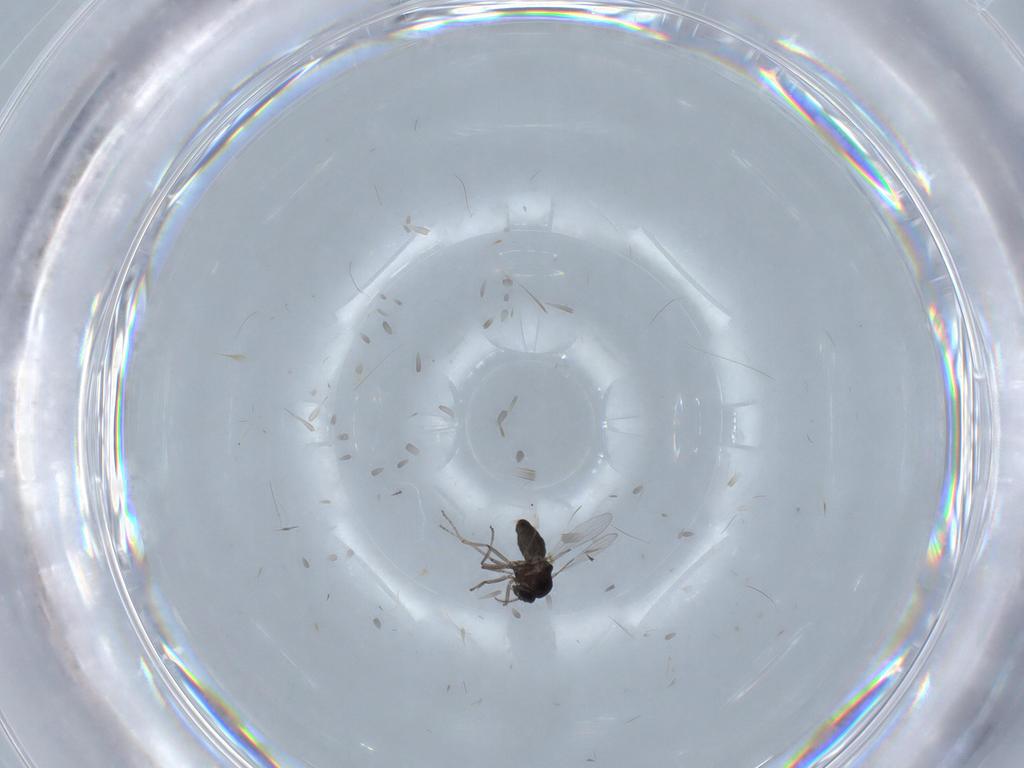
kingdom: Animalia
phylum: Arthropoda
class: Insecta
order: Diptera
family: Ceratopogonidae
